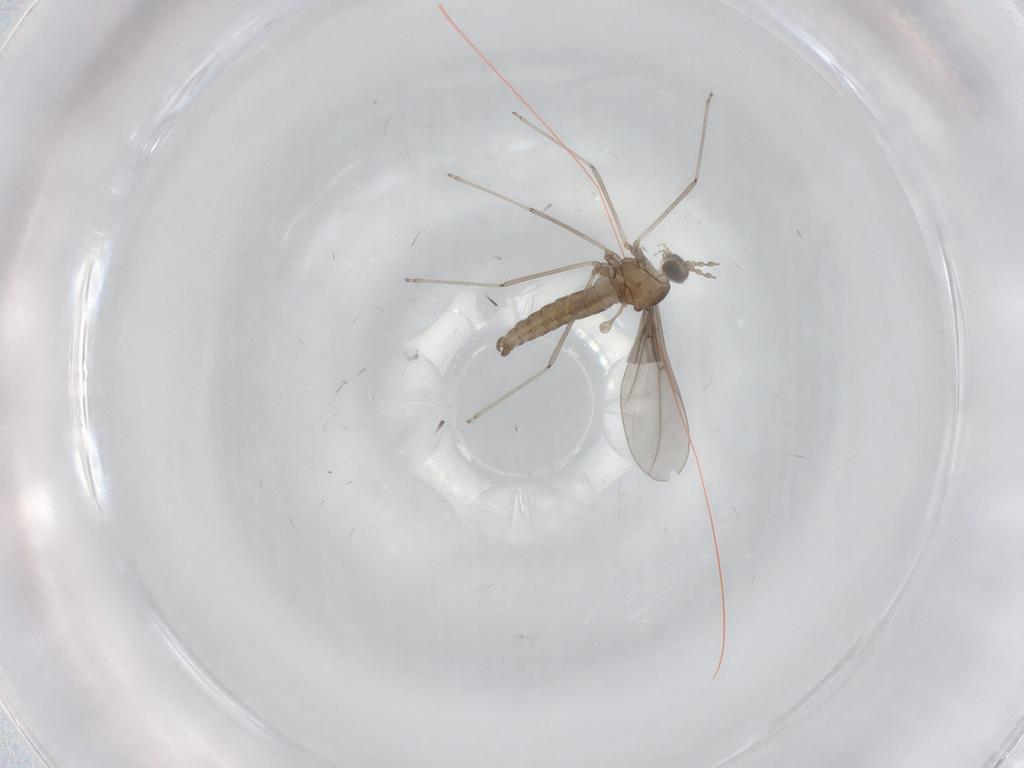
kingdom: Animalia
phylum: Arthropoda
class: Insecta
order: Diptera
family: Cecidomyiidae
